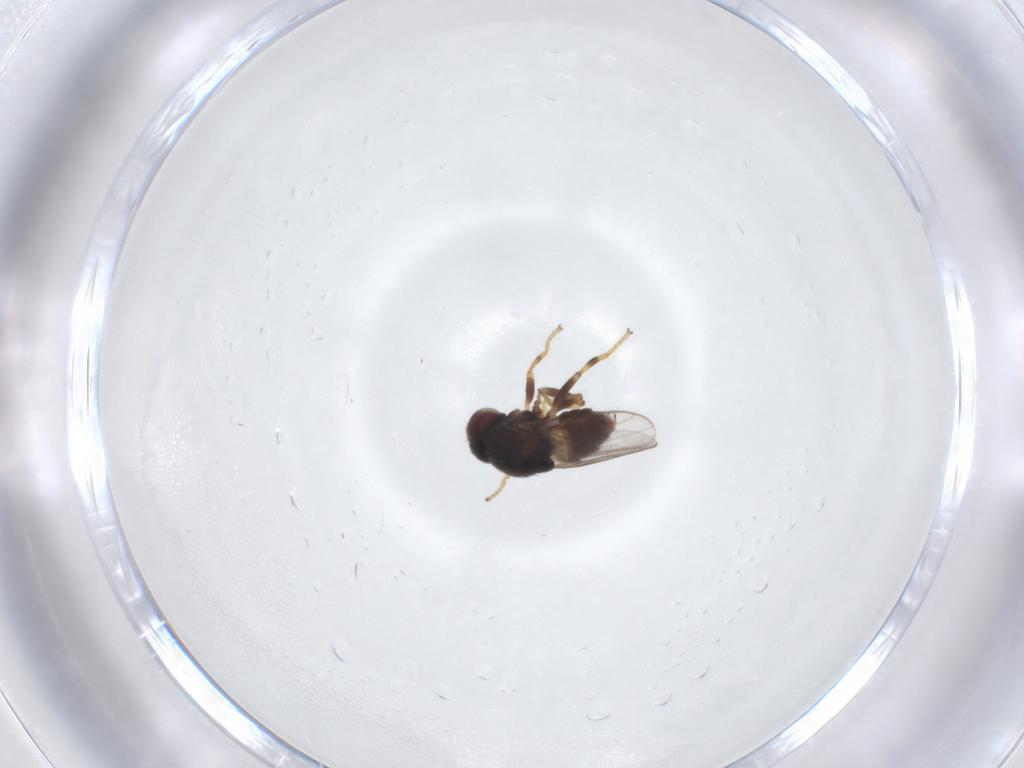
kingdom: Animalia
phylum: Arthropoda
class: Insecta
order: Diptera
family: Chloropidae
